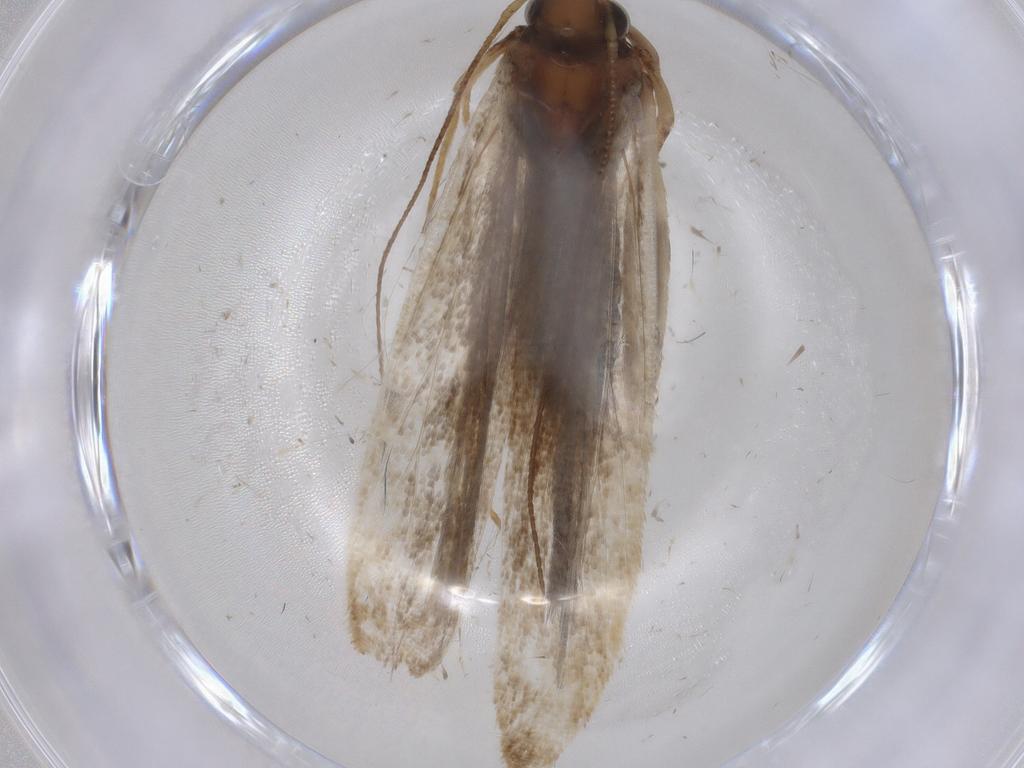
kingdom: Animalia
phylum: Arthropoda
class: Insecta
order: Lepidoptera
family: Gelechiidae
